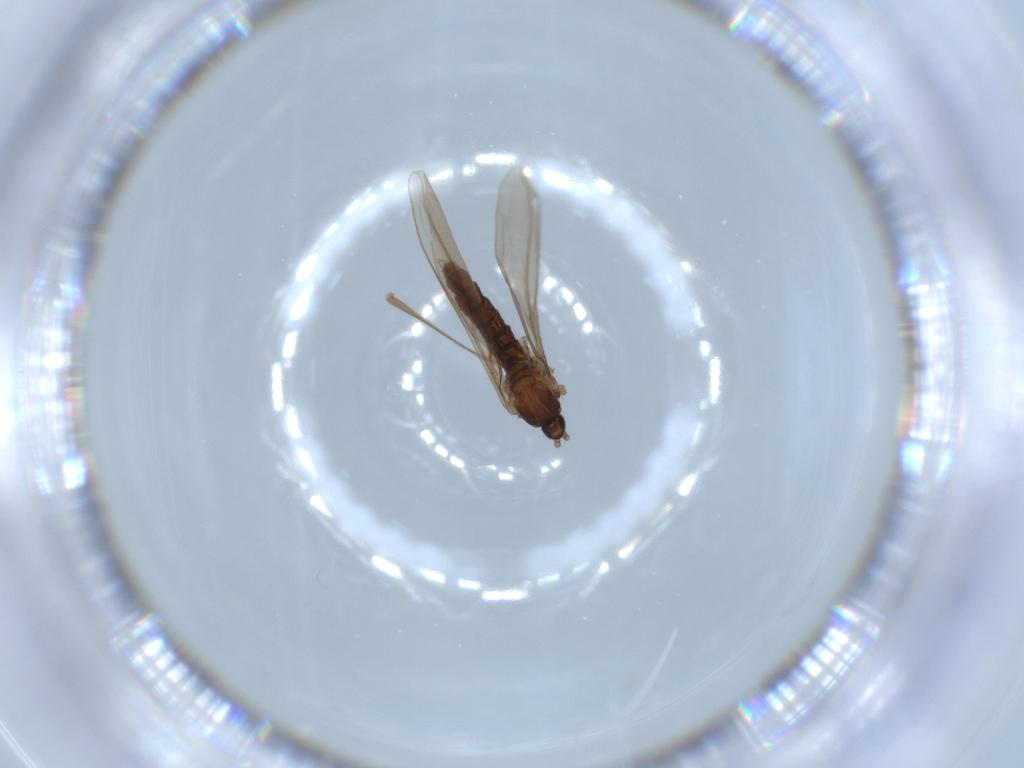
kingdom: Animalia
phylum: Arthropoda
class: Insecta
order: Diptera
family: Cecidomyiidae
